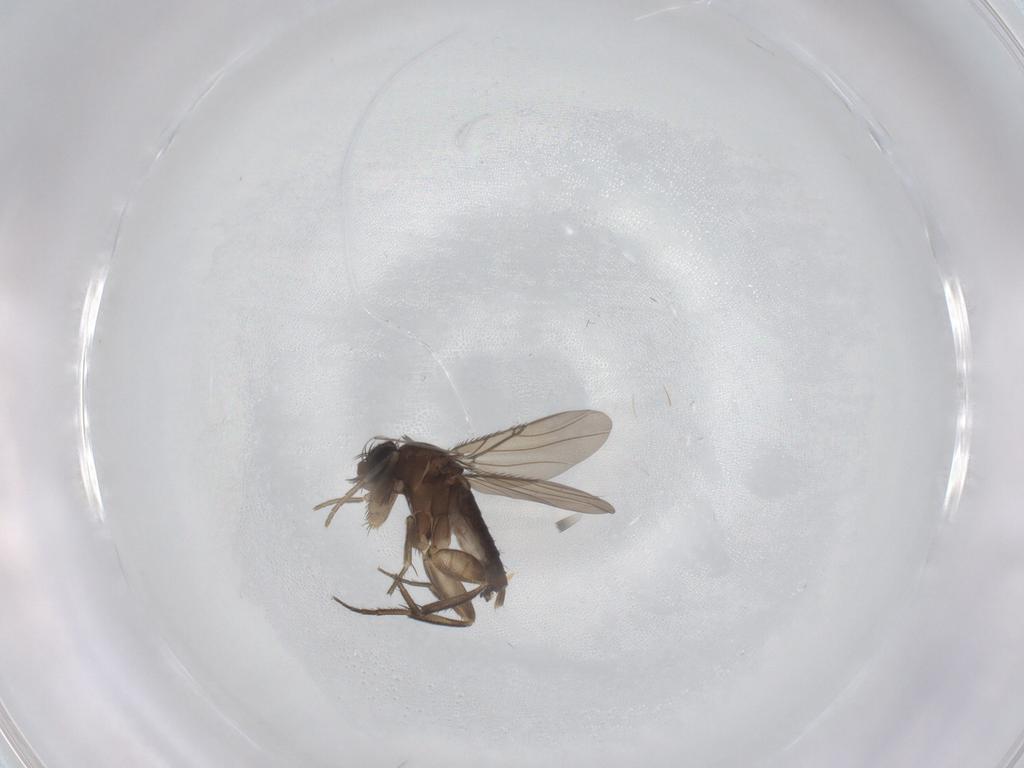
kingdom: Animalia
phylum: Arthropoda
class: Insecta
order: Diptera
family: Phoridae
